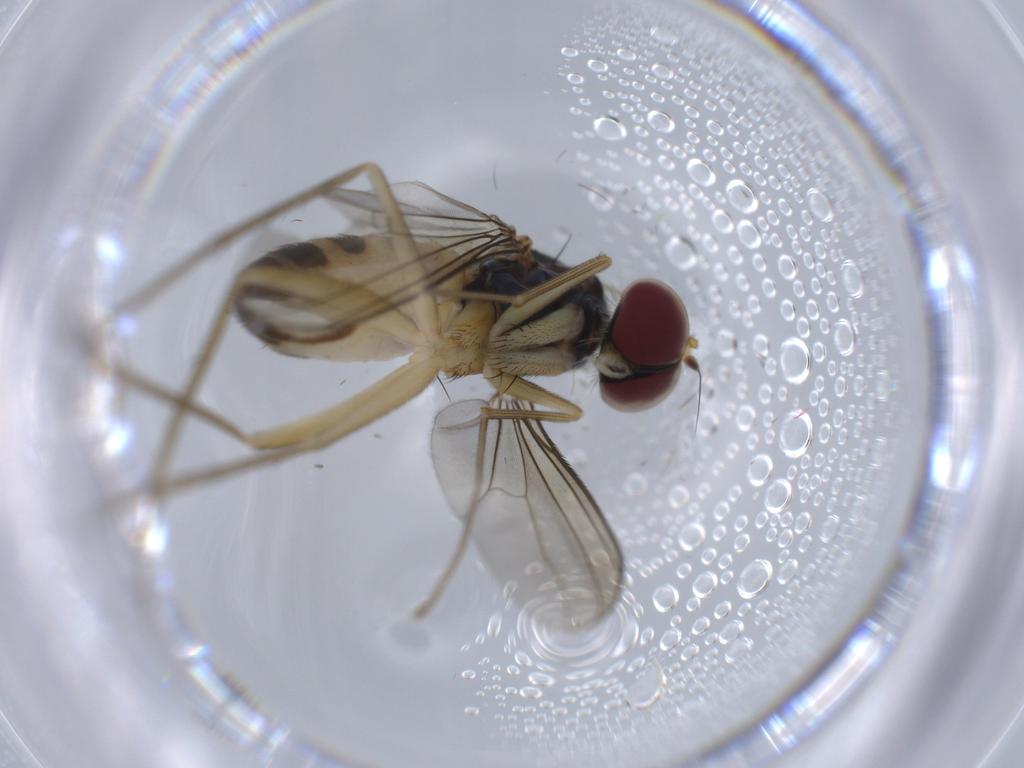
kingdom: Animalia
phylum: Arthropoda
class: Insecta
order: Diptera
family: Dolichopodidae
